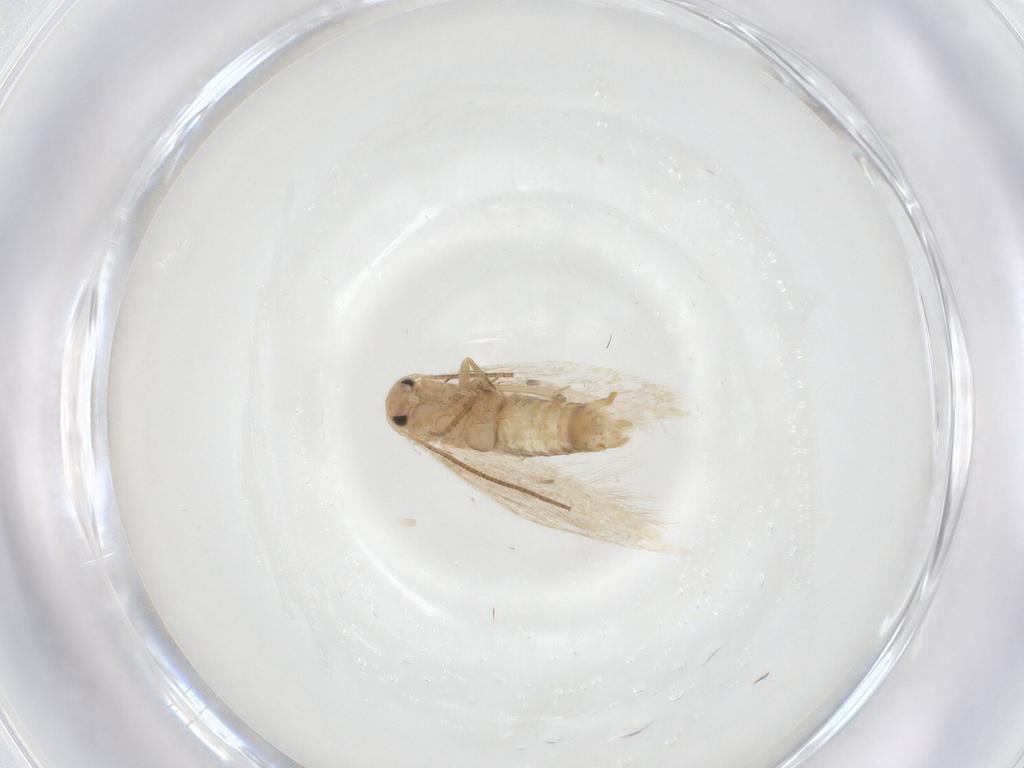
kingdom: Animalia
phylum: Arthropoda
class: Insecta
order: Lepidoptera
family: Bucculatricidae
